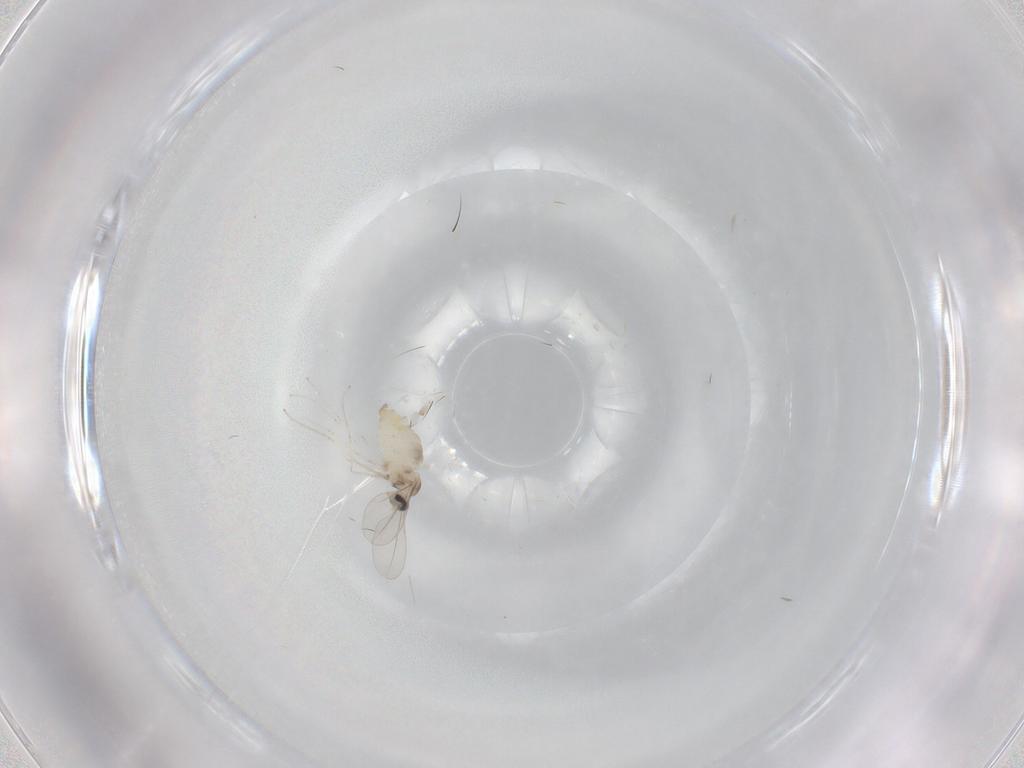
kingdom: Animalia
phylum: Arthropoda
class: Insecta
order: Diptera
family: Cecidomyiidae
